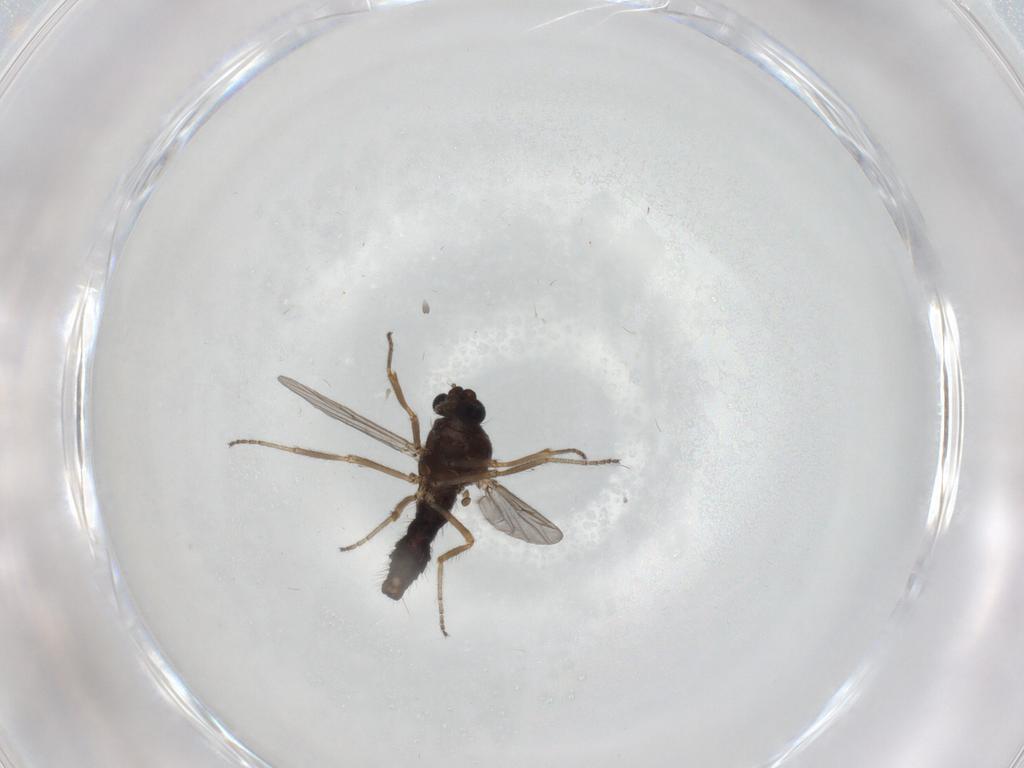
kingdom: Animalia
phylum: Arthropoda
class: Insecta
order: Diptera
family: Ceratopogonidae
